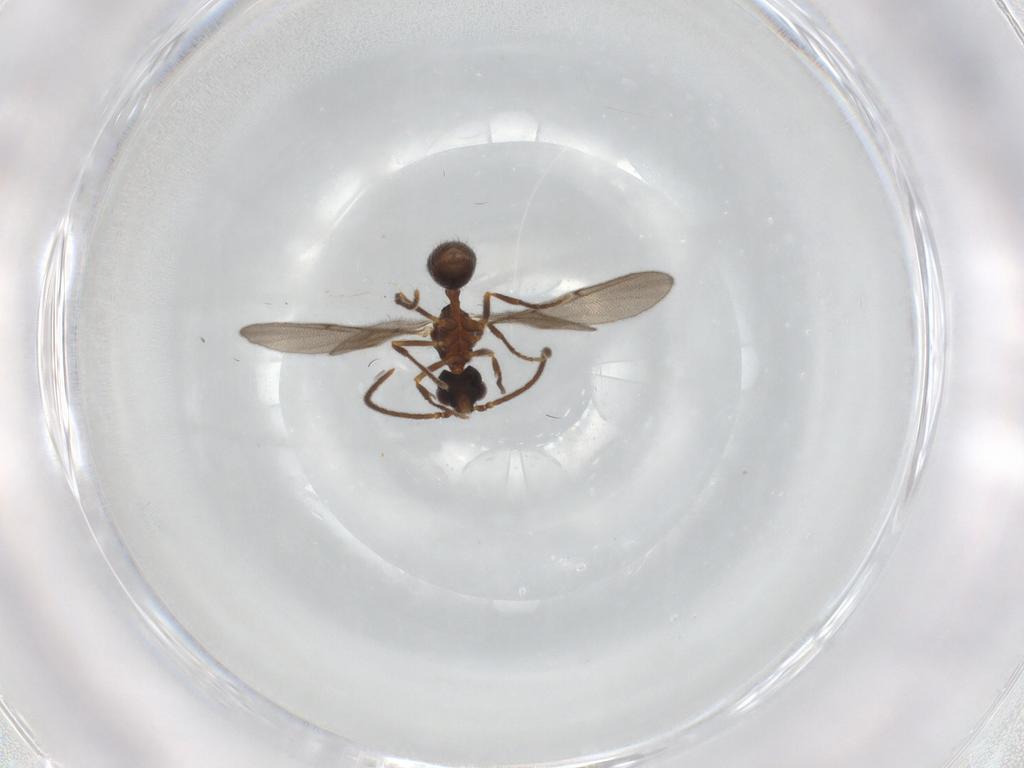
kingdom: Animalia
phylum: Arthropoda
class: Insecta
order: Hymenoptera
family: Formicidae
